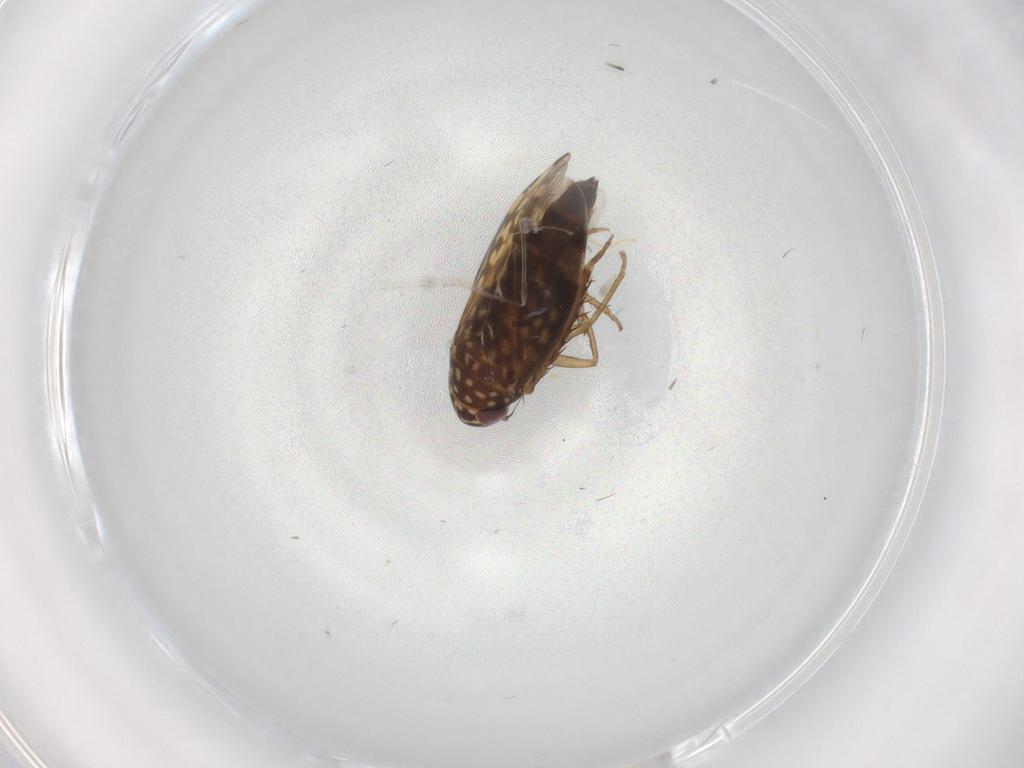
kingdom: Animalia
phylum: Arthropoda
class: Insecta
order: Hemiptera
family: Cicadellidae
